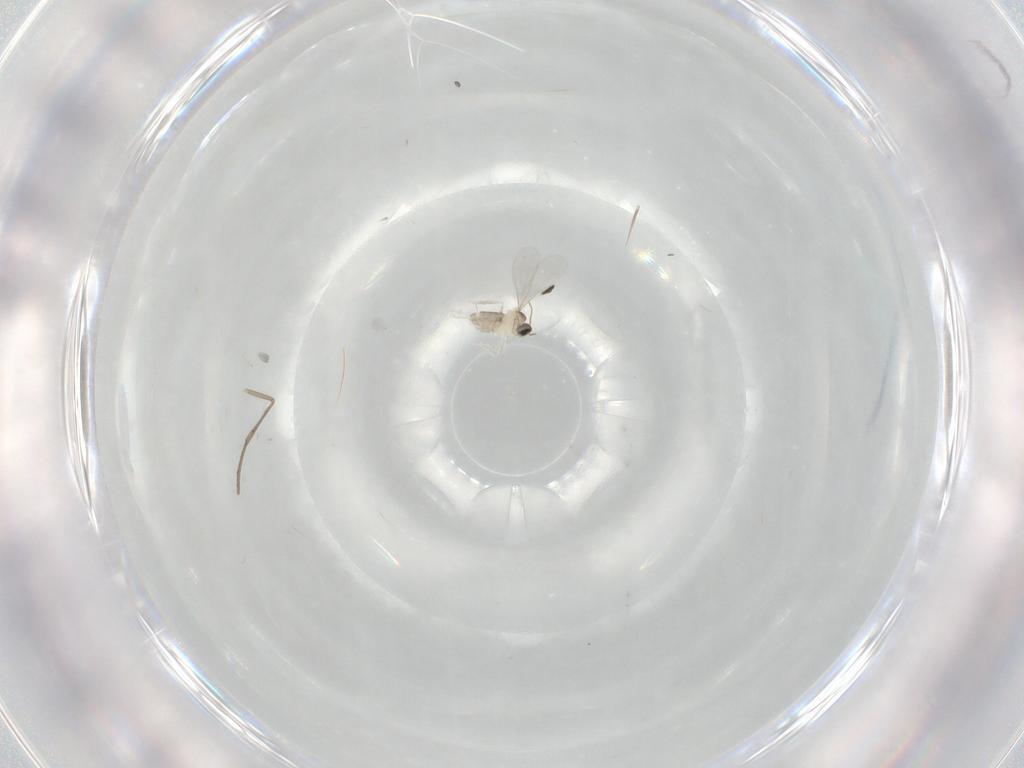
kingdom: Animalia
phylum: Arthropoda
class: Insecta
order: Diptera
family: Cecidomyiidae
